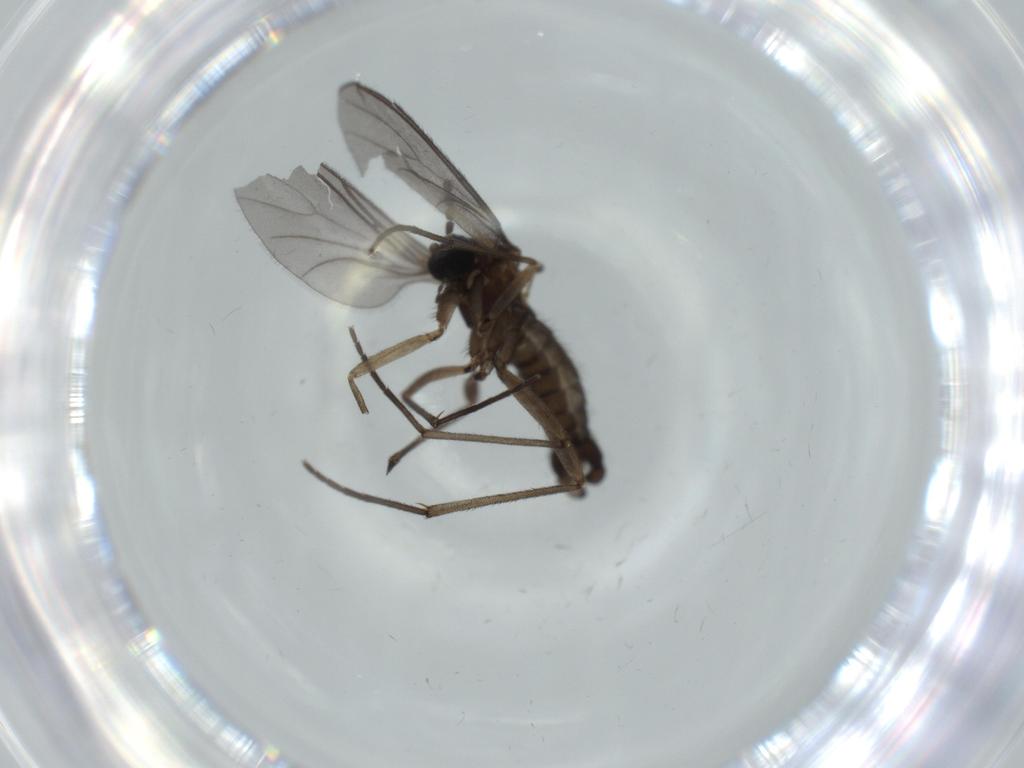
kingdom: Animalia
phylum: Arthropoda
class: Insecta
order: Diptera
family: Sciaridae
